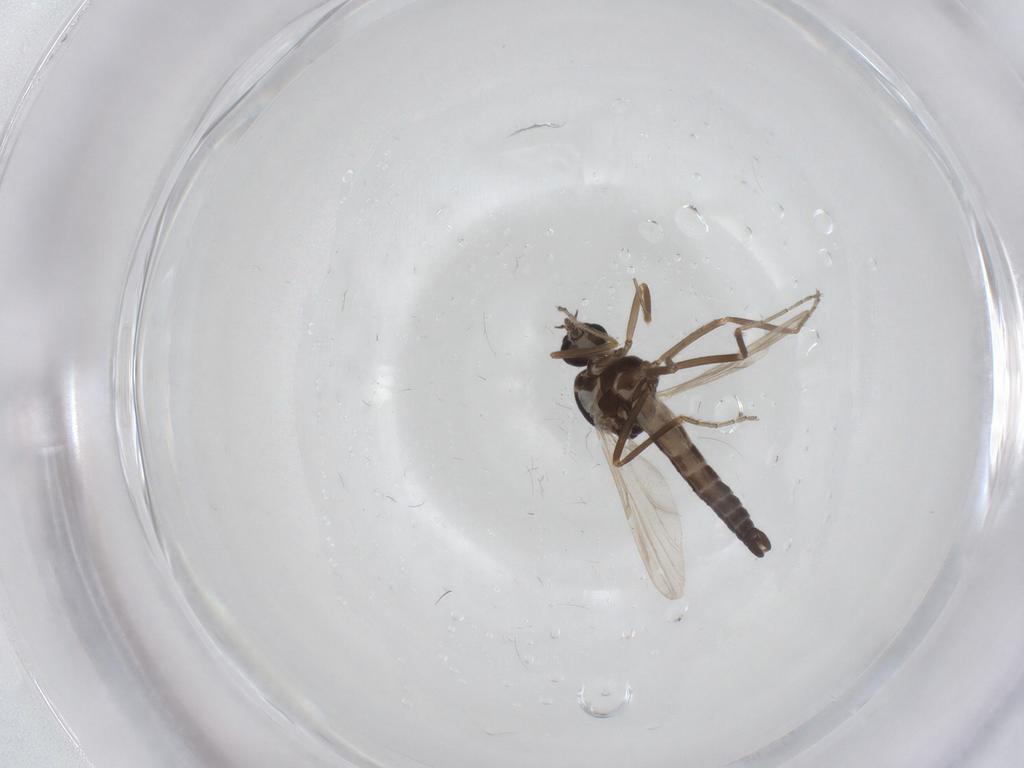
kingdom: Animalia
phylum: Arthropoda
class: Insecta
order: Diptera
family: Ceratopogonidae
